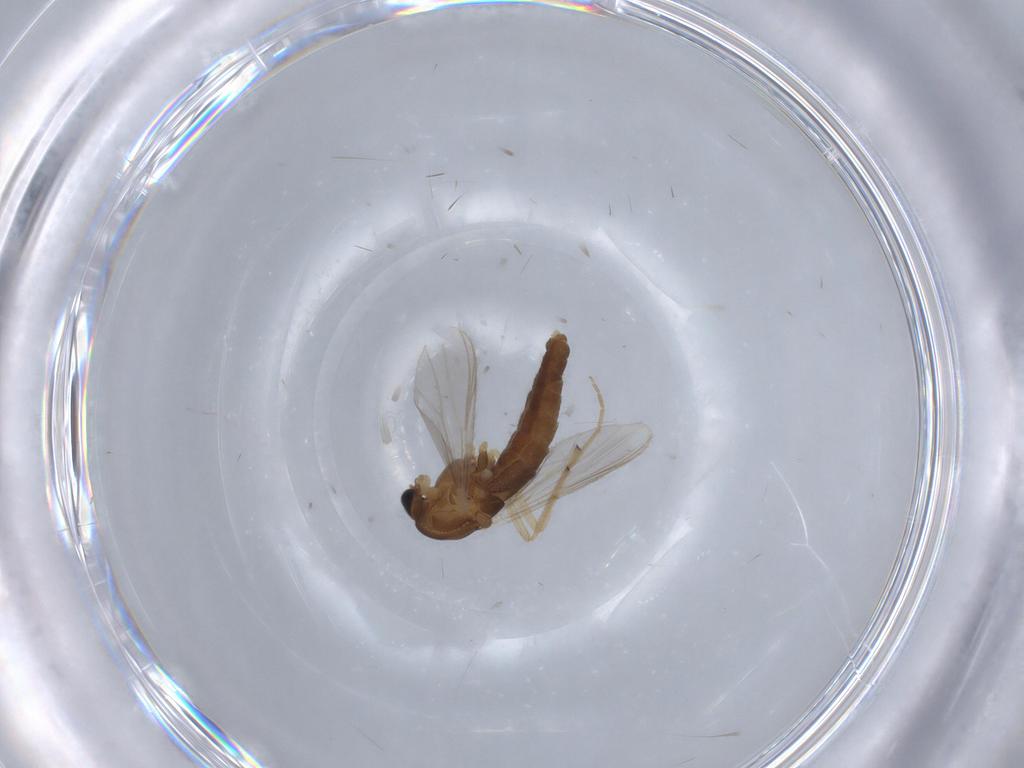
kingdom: Animalia
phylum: Arthropoda
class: Insecta
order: Diptera
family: Chironomidae
